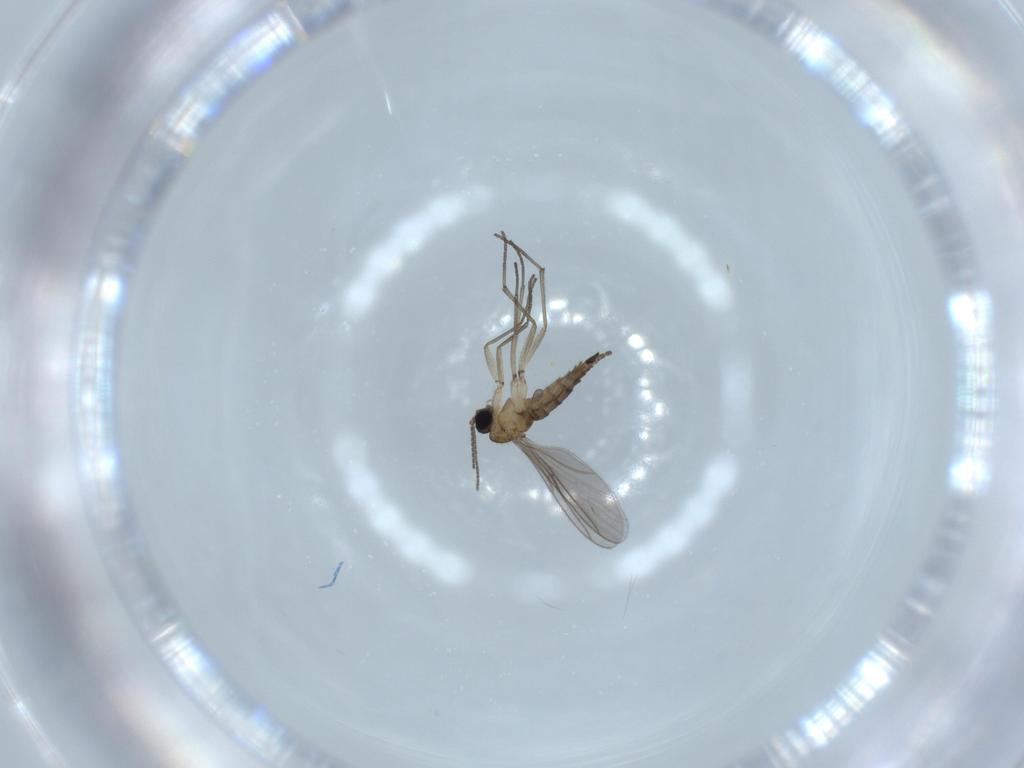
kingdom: Animalia
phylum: Arthropoda
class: Insecta
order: Diptera
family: Sciaridae
